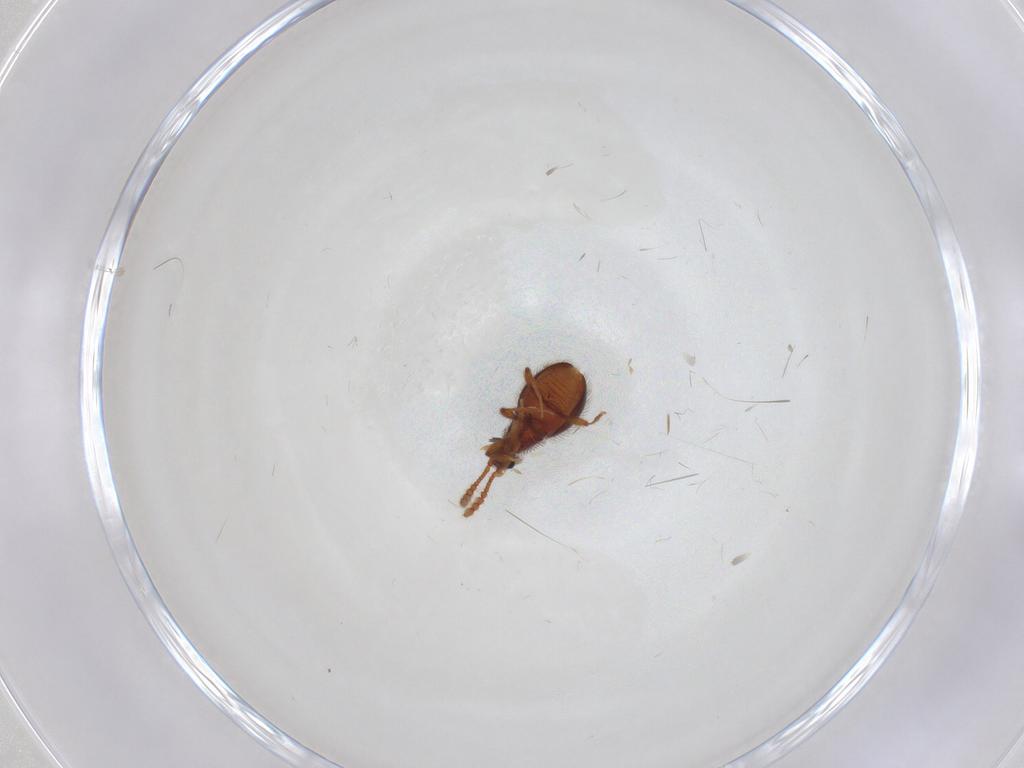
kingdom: Animalia
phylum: Arthropoda
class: Insecta
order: Coleoptera
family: Staphylinidae
